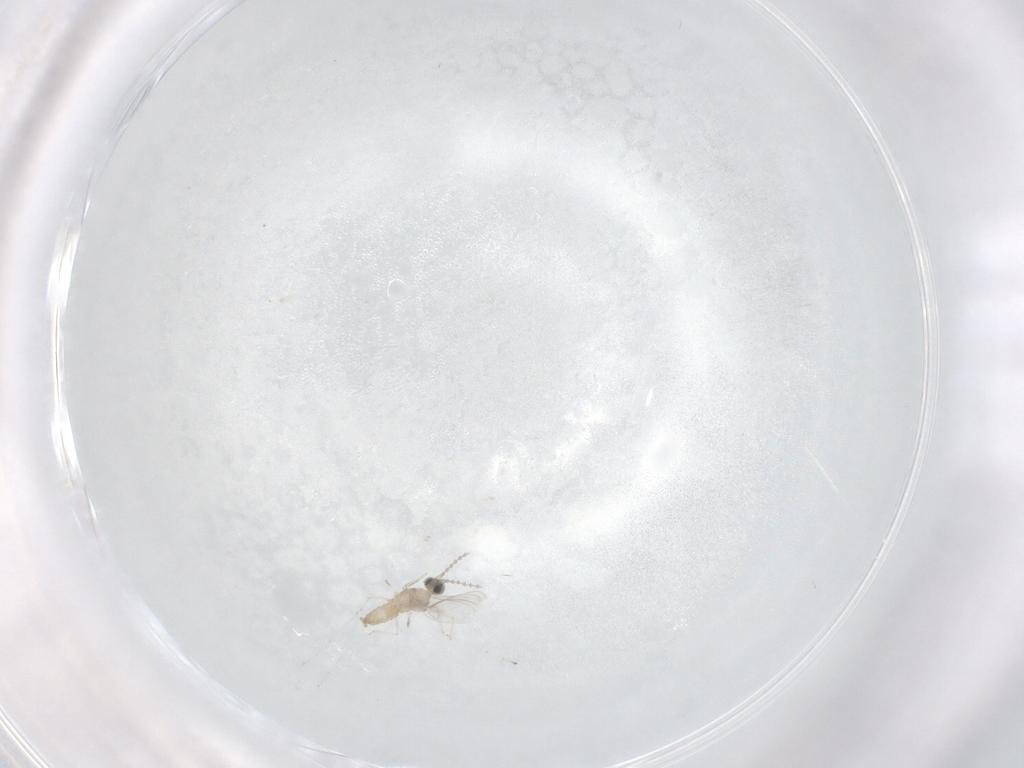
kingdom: Animalia
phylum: Arthropoda
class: Insecta
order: Diptera
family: Cecidomyiidae
